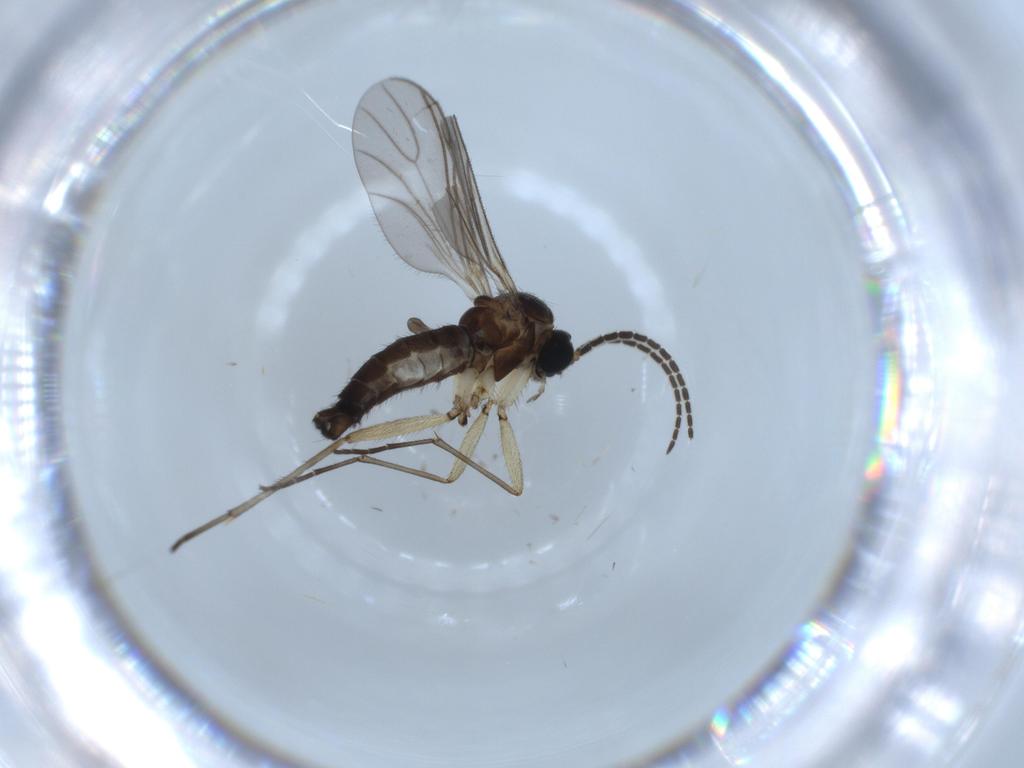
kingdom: Animalia
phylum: Arthropoda
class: Insecta
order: Diptera
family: Sciaridae
